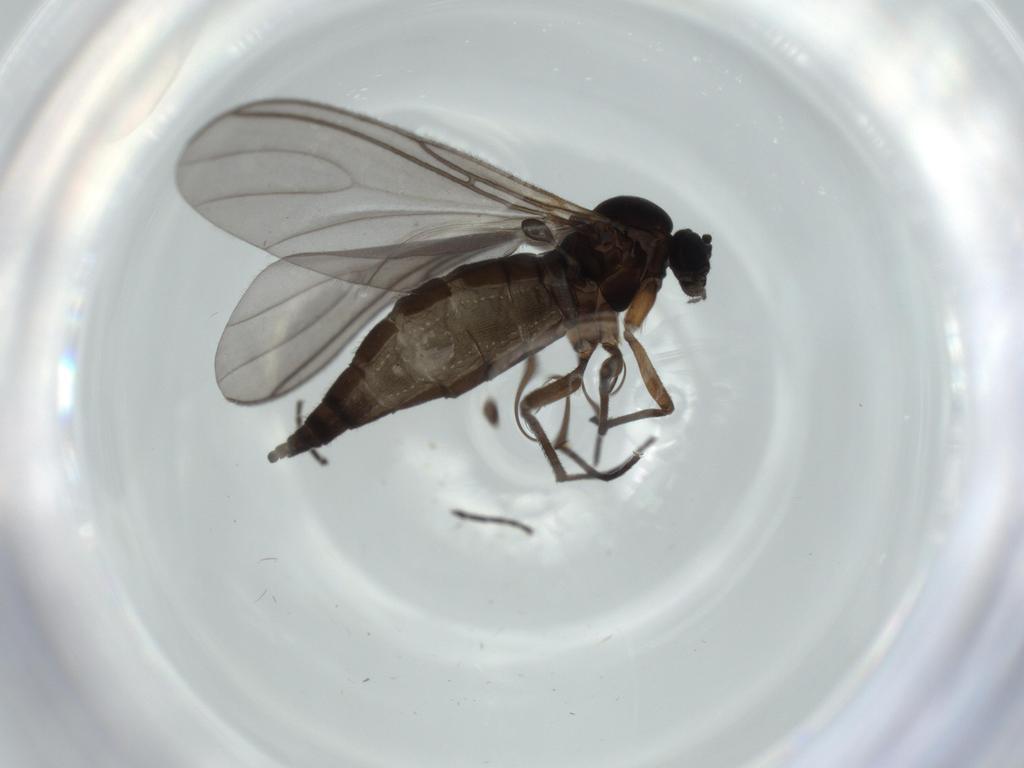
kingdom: Animalia
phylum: Arthropoda
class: Insecta
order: Diptera
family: Sciaridae
